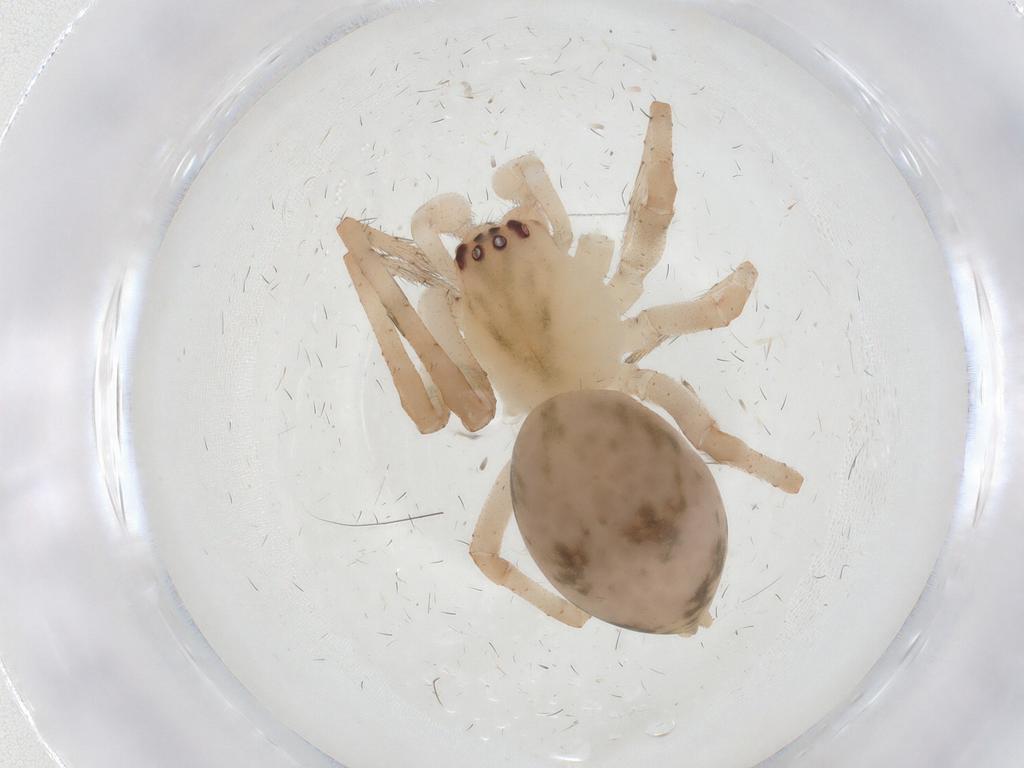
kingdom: Animalia
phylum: Arthropoda
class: Arachnida
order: Araneae
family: Dictynidae
